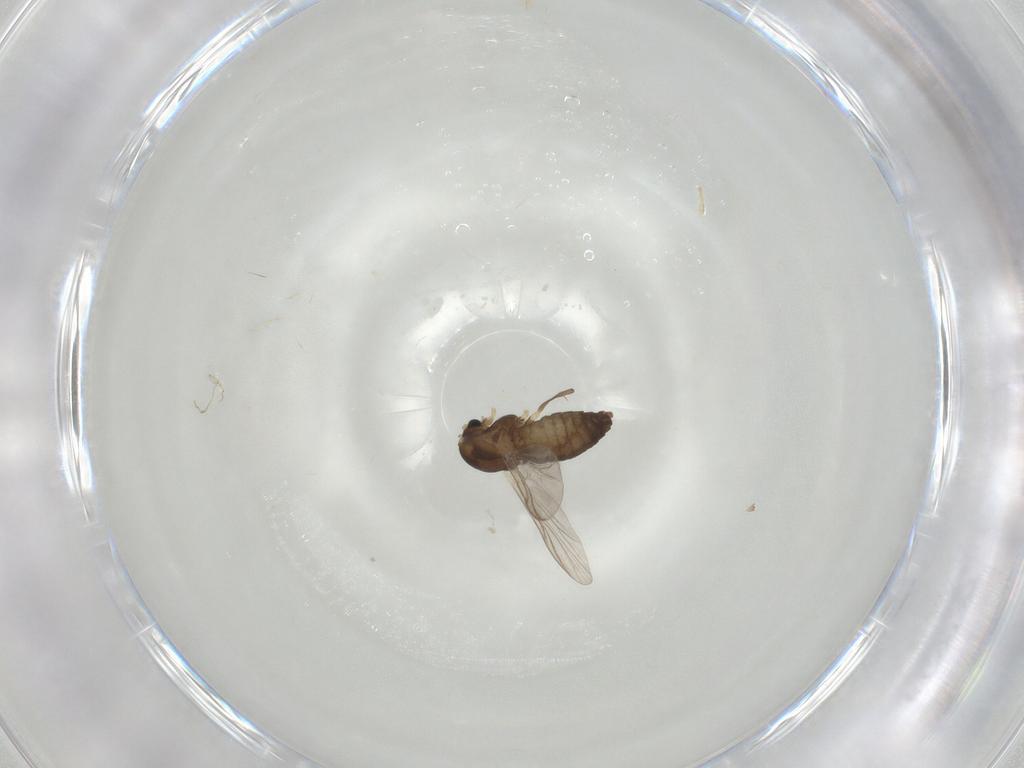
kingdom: Animalia
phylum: Arthropoda
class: Insecta
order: Diptera
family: Chironomidae
